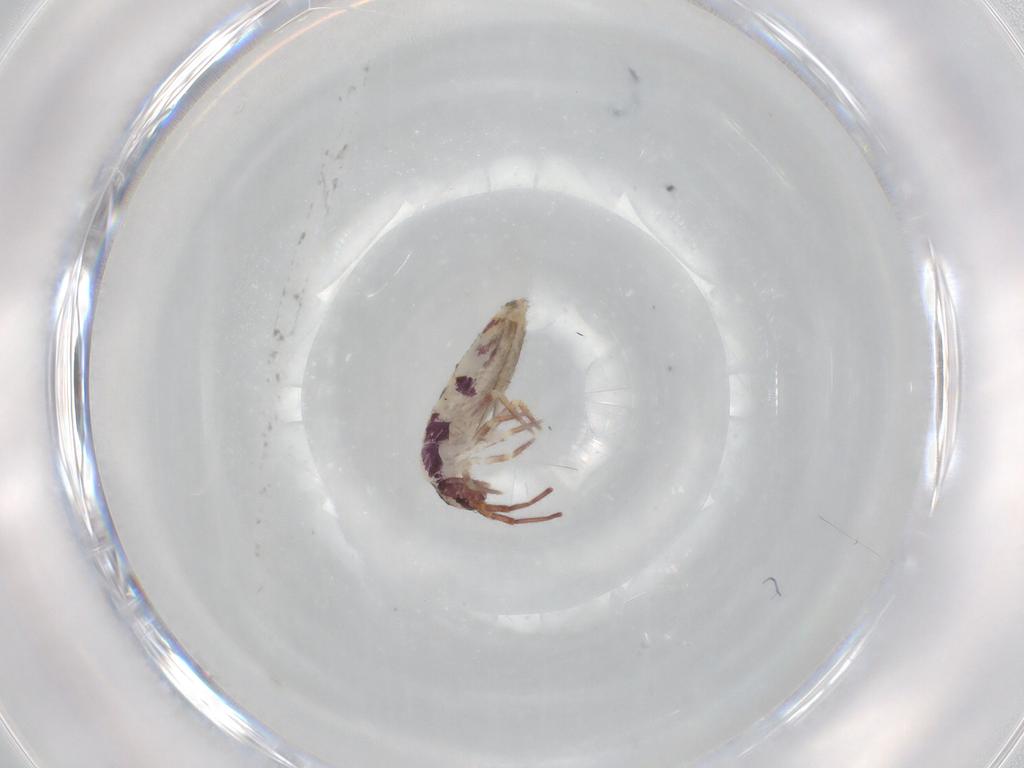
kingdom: Animalia
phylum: Arthropoda
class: Collembola
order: Entomobryomorpha
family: Entomobryidae
